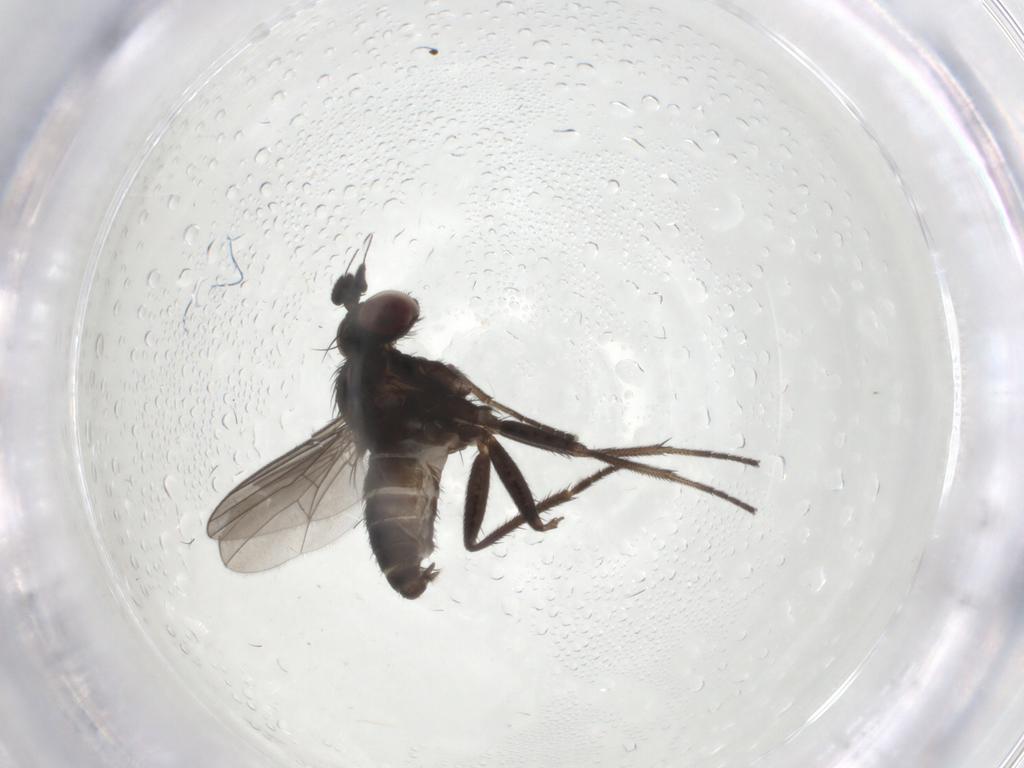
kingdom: Animalia
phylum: Arthropoda
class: Insecta
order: Diptera
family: Dolichopodidae
